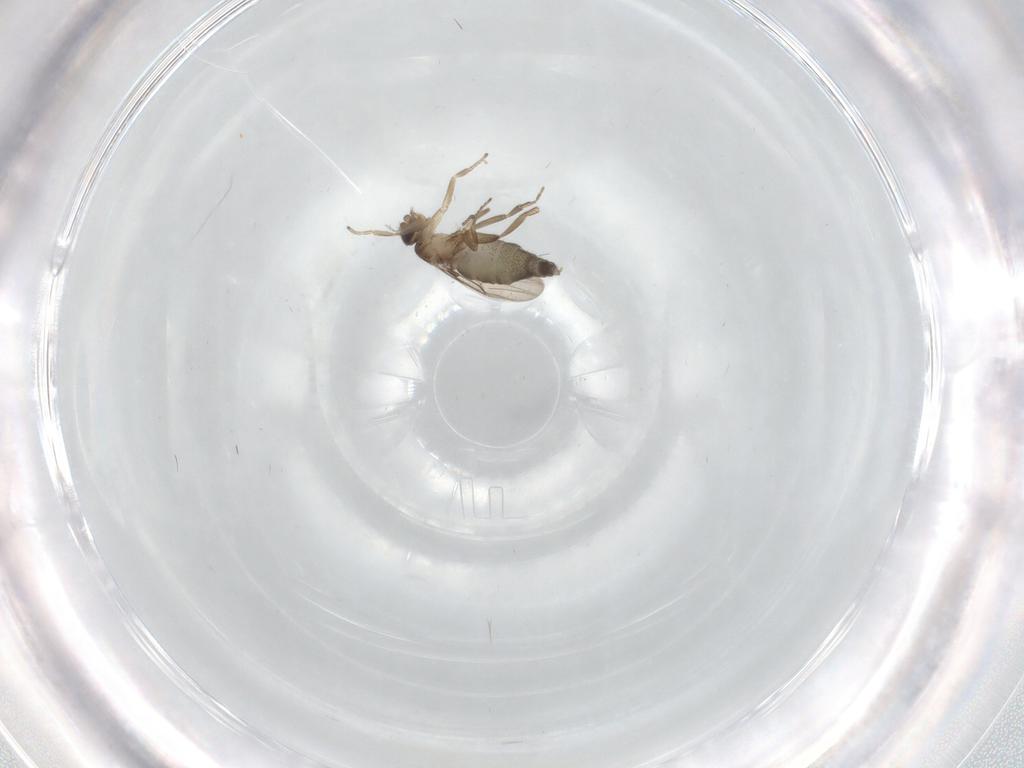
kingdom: Animalia
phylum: Arthropoda
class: Insecta
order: Diptera
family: Phoridae
